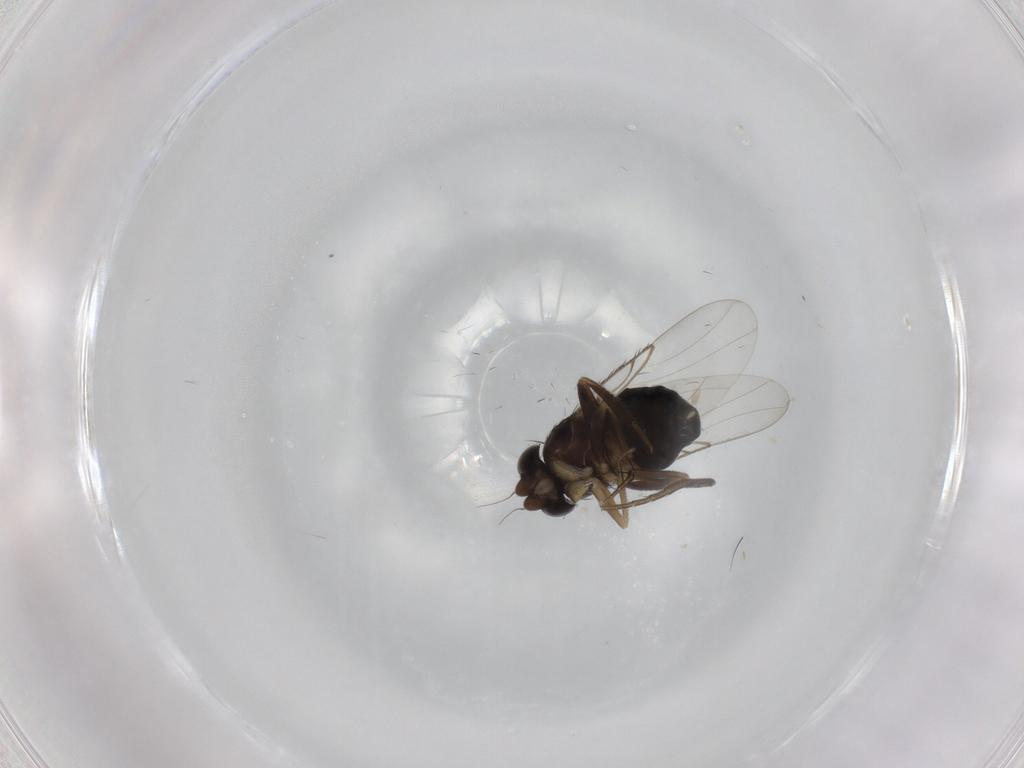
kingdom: Animalia
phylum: Arthropoda
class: Insecta
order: Diptera
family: Phoridae
